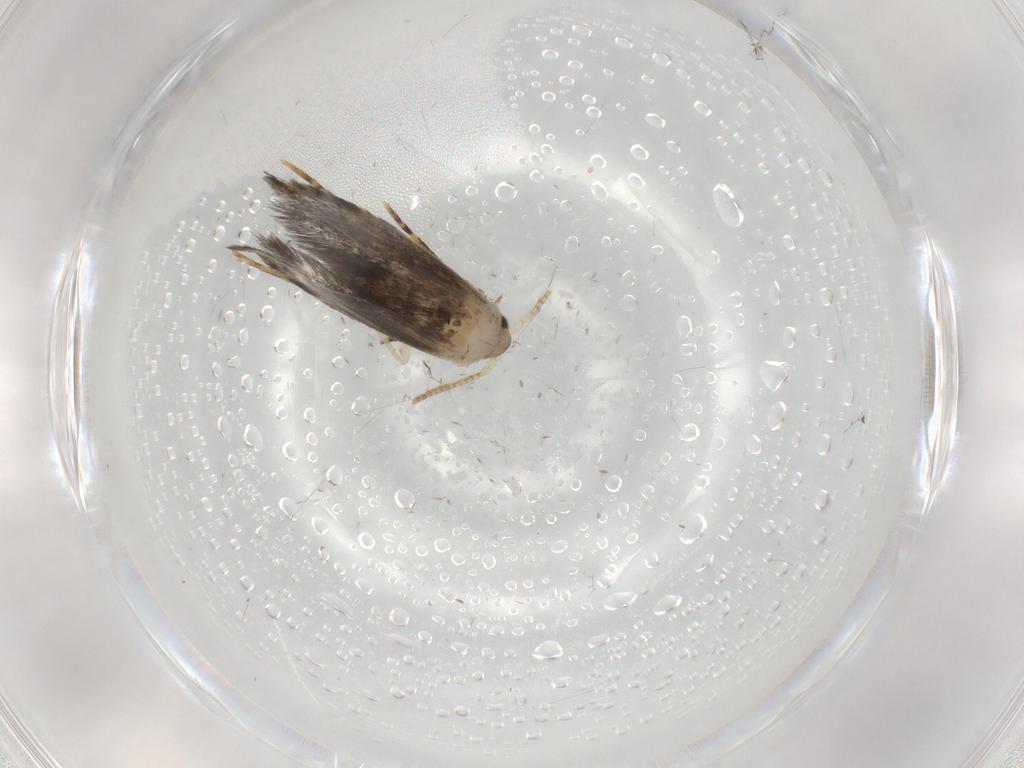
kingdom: Animalia
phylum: Arthropoda
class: Insecta
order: Lepidoptera
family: Tineidae
